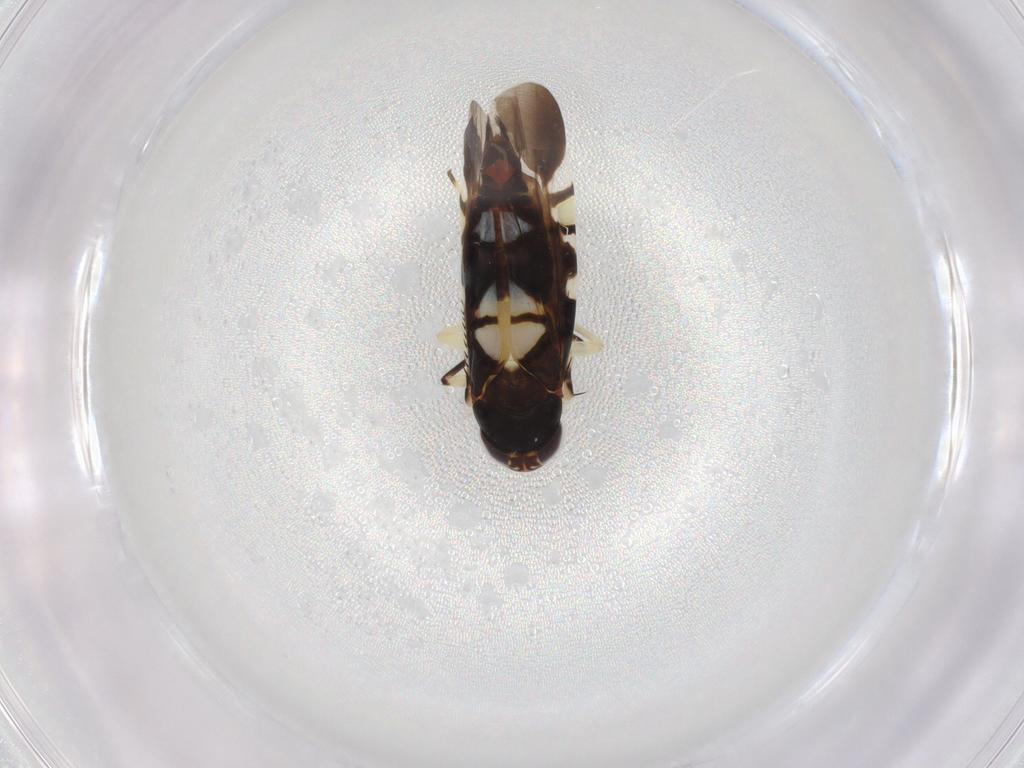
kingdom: Animalia
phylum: Arthropoda
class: Insecta
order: Hemiptera
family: Cicadellidae
